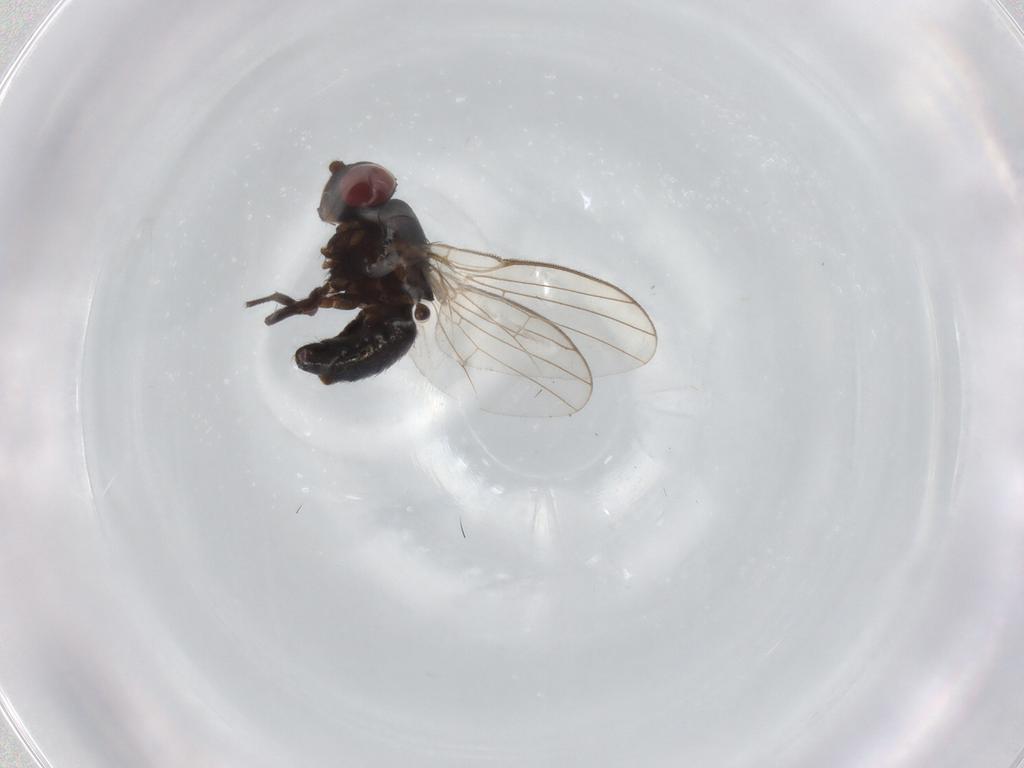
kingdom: Animalia
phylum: Arthropoda
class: Insecta
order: Diptera
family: Agromyzidae
